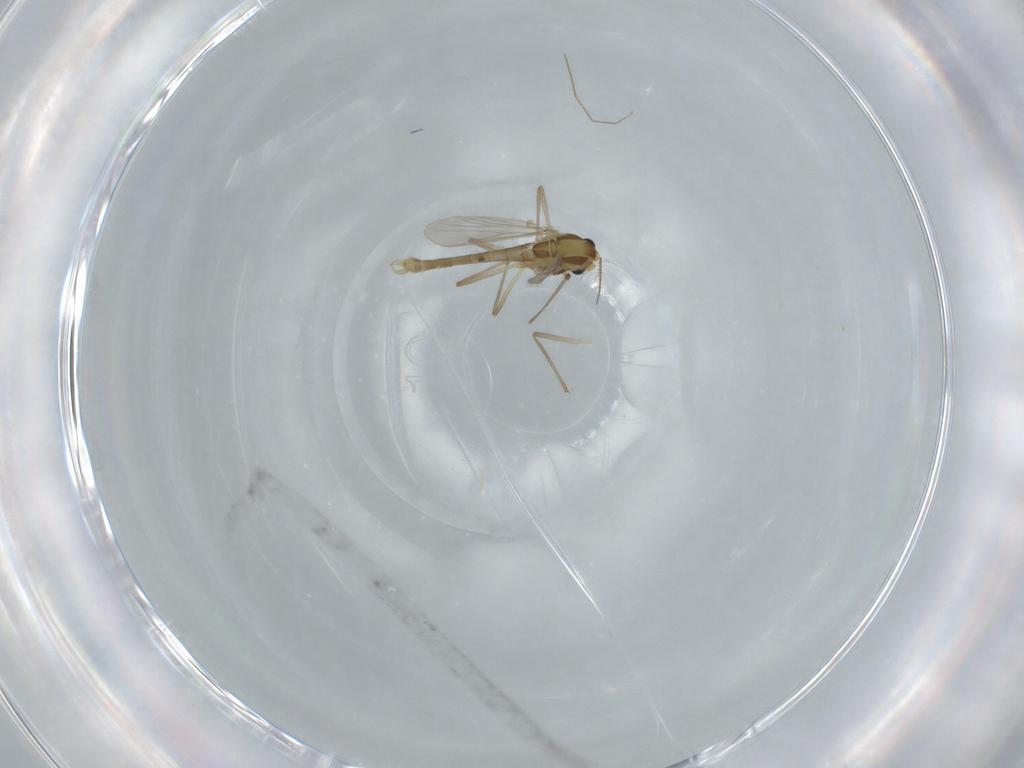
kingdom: Animalia
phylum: Arthropoda
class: Insecta
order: Diptera
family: Cecidomyiidae
